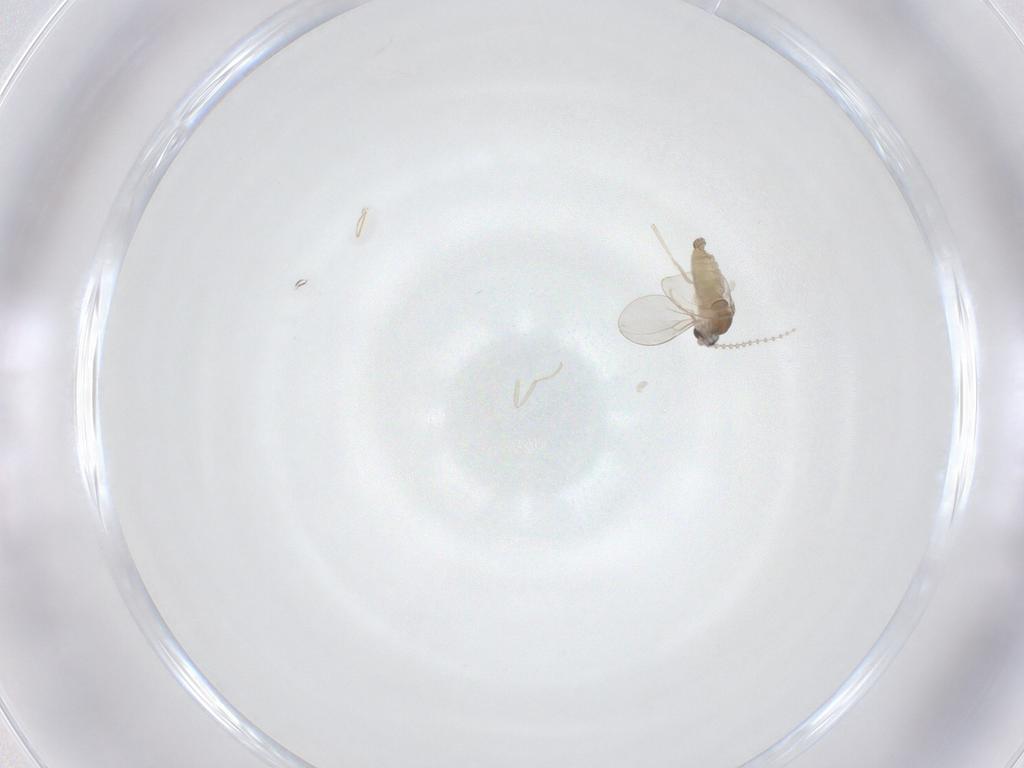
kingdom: Animalia
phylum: Arthropoda
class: Insecta
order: Diptera
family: Cecidomyiidae
